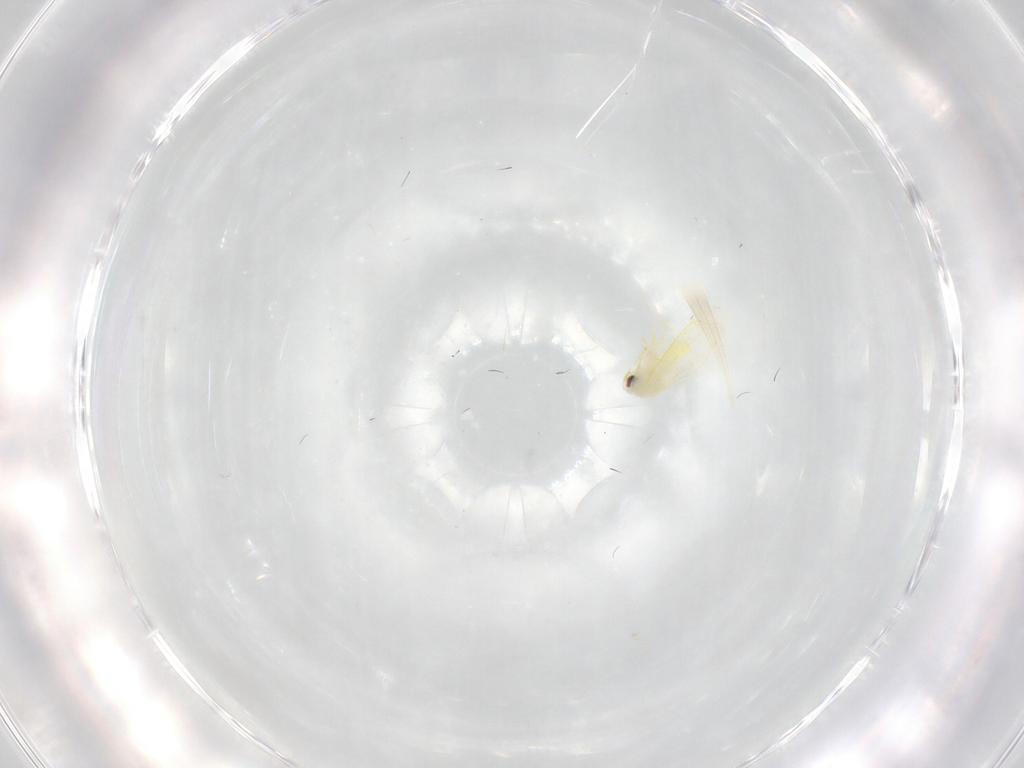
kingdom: Animalia
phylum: Arthropoda
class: Insecta
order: Hemiptera
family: Aleyrodidae
